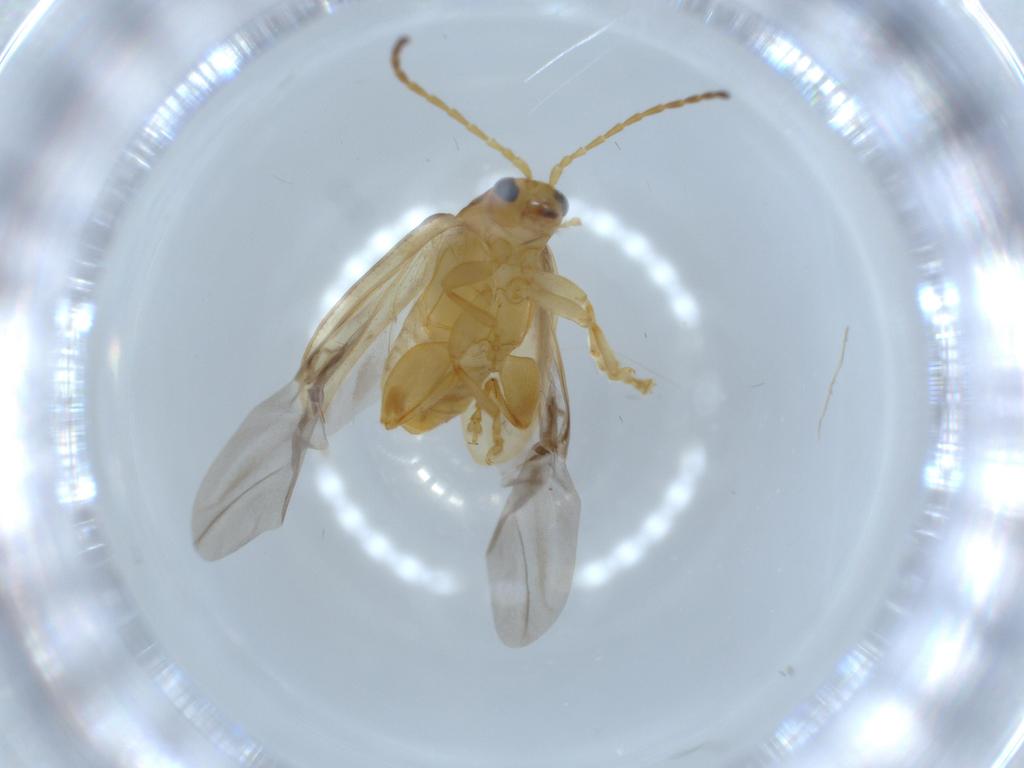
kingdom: Animalia
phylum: Arthropoda
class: Insecta
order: Coleoptera
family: Chrysomelidae
